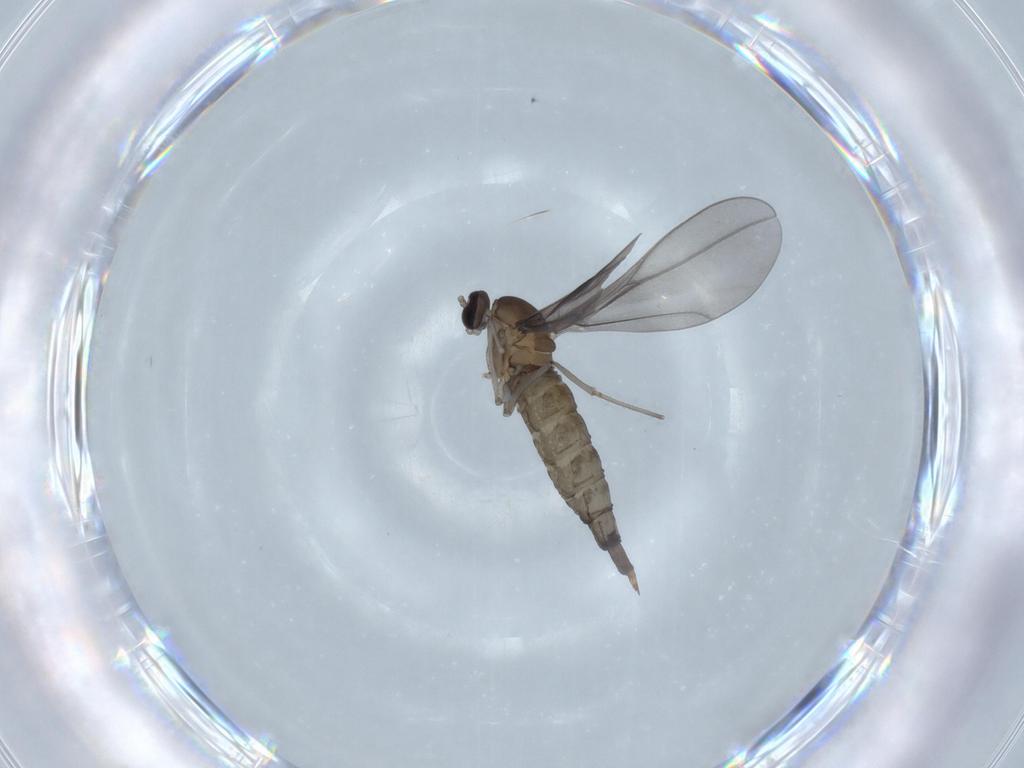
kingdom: Animalia
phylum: Arthropoda
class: Insecta
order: Diptera
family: Cecidomyiidae
